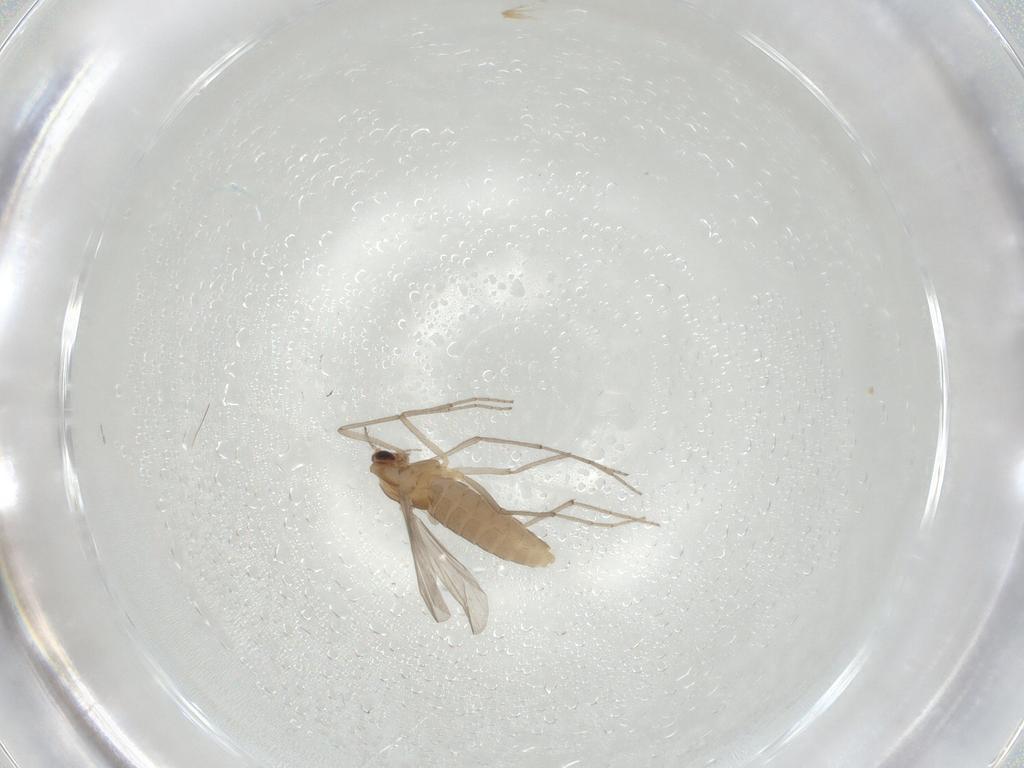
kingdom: Animalia
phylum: Arthropoda
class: Insecta
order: Diptera
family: Chironomidae
